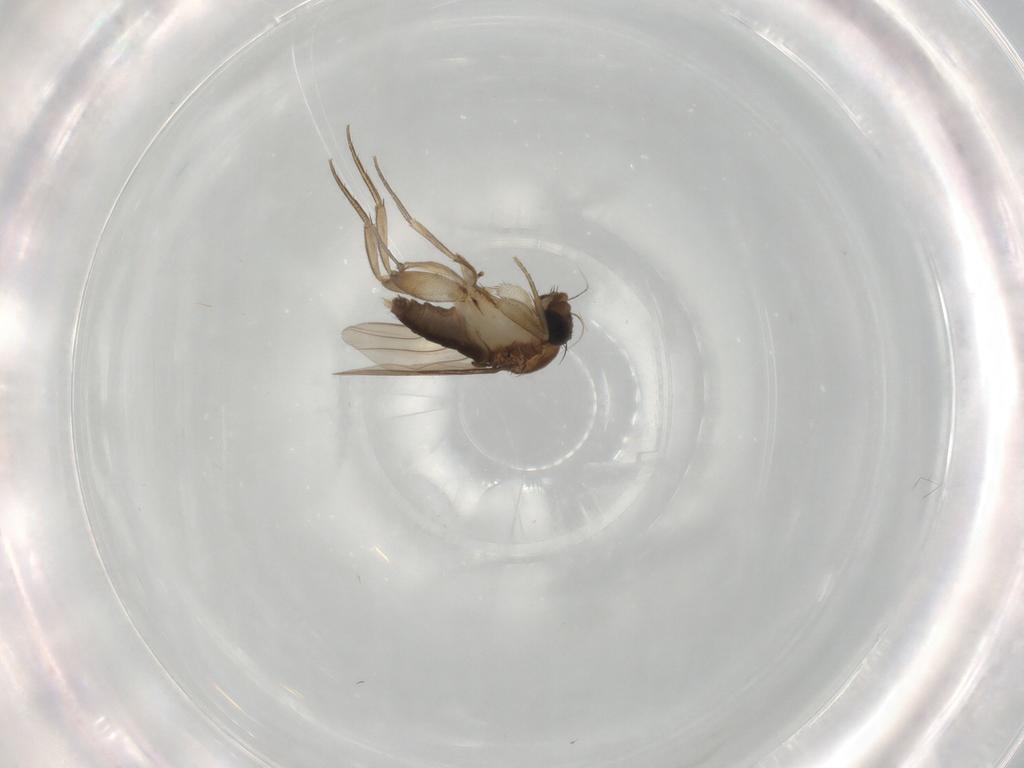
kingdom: Animalia
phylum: Arthropoda
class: Insecta
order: Diptera
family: Phoridae
